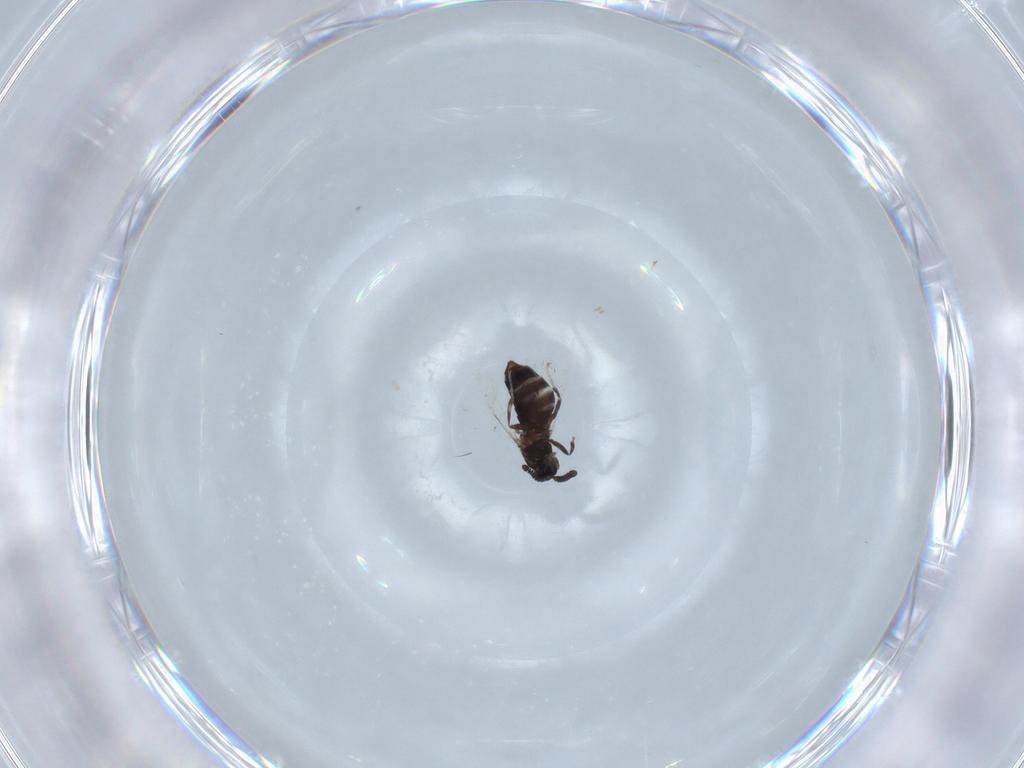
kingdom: Animalia
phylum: Arthropoda
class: Insecta
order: Diptera
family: Scatopsidae
